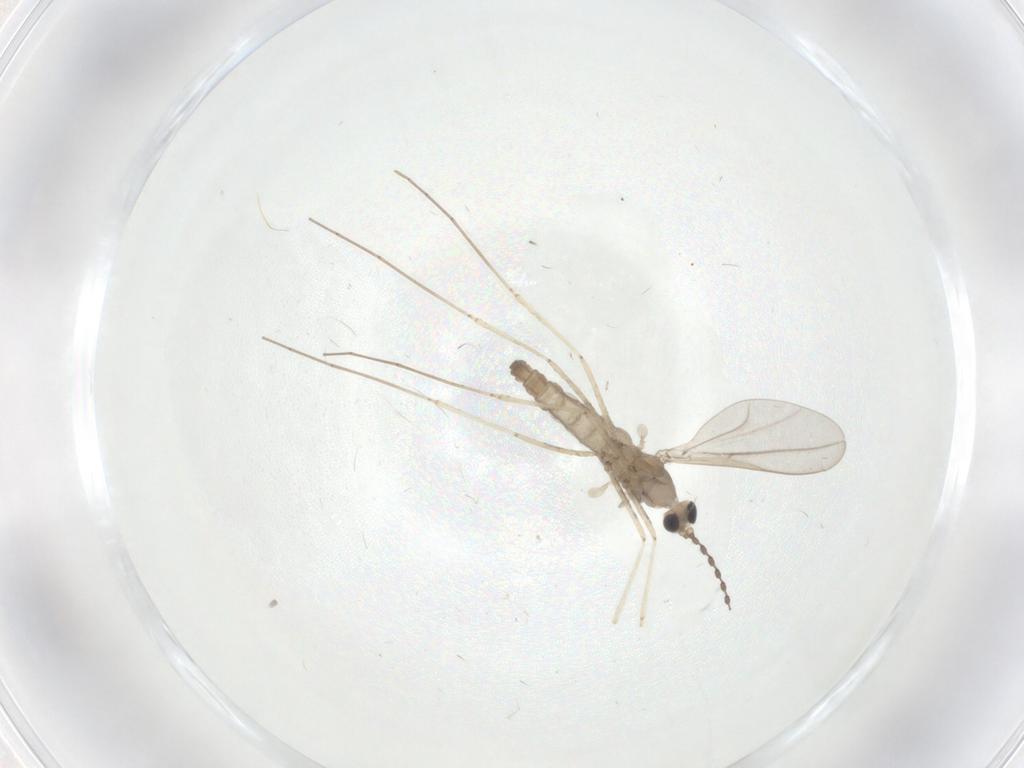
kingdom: Animalia
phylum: Arthropoda
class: Insecta
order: Diptera
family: Cecidomyiidae
